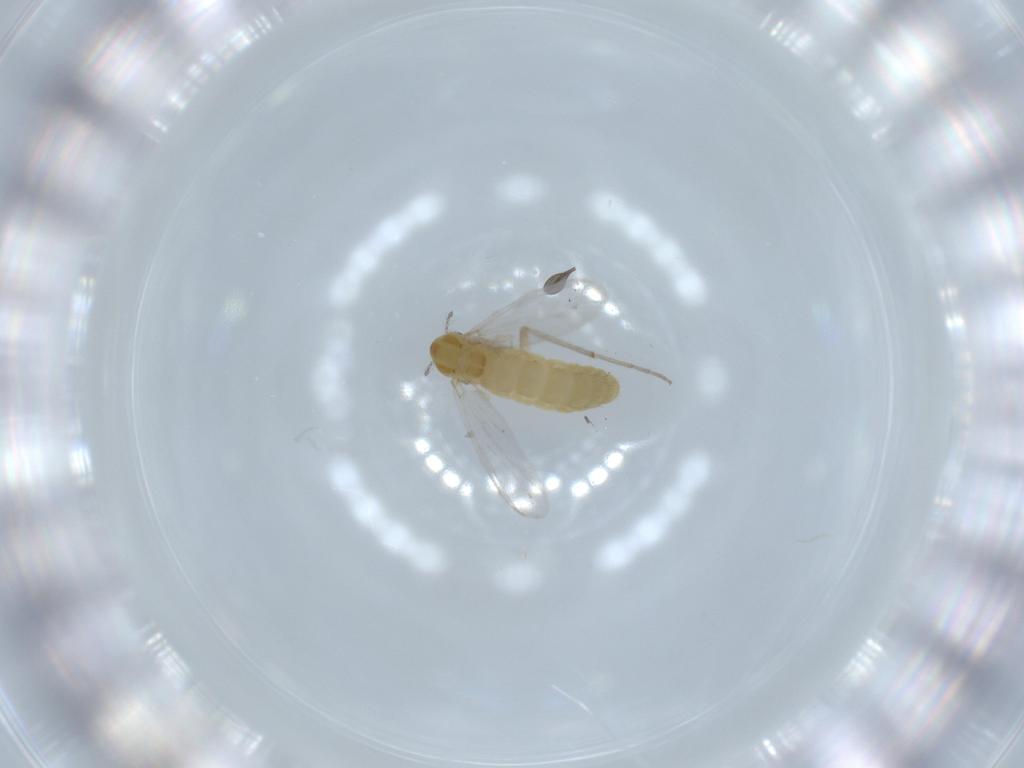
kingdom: Animalia
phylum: Arthropoda
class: Insecta
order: Diptera
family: Chironomidae
